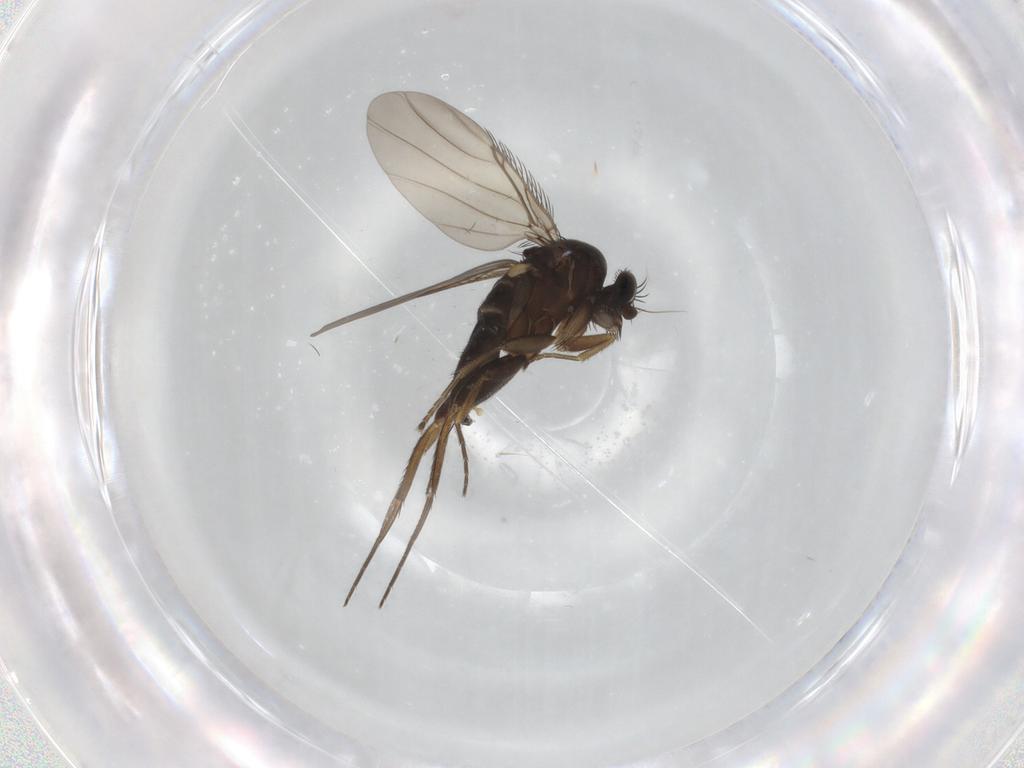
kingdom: Animalia
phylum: Arthropoda
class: Insecta
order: Diptera
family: Phoridae
